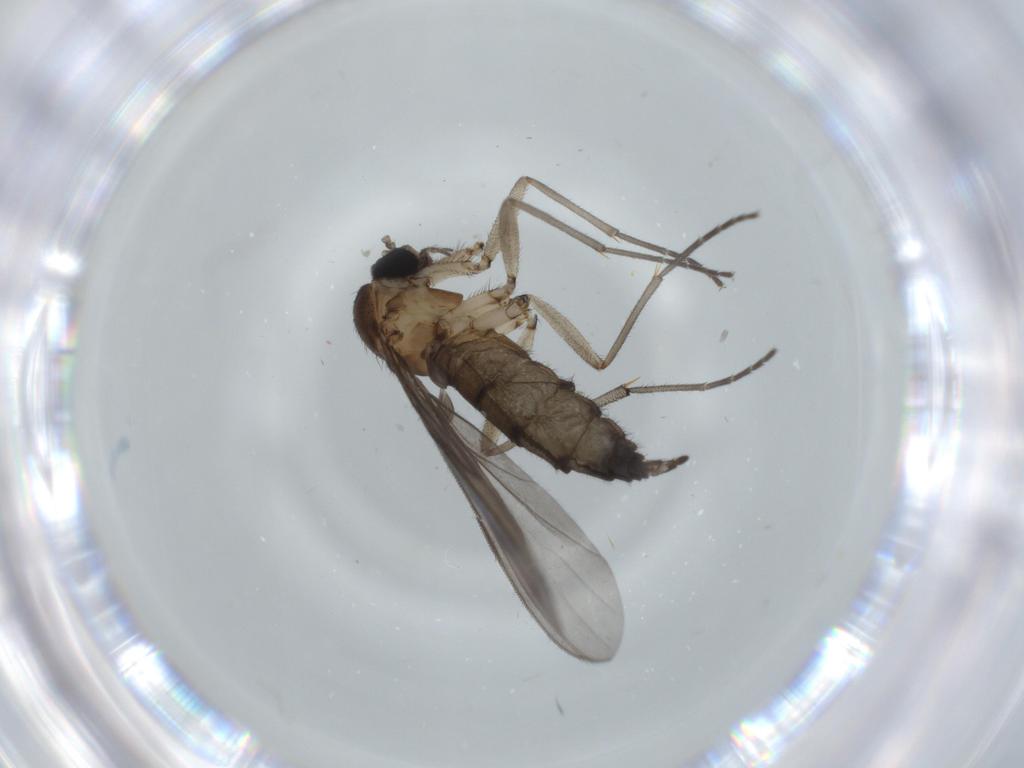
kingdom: Animalia
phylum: Arthropoda
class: Insecta
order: Diptera
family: Sciaridae
